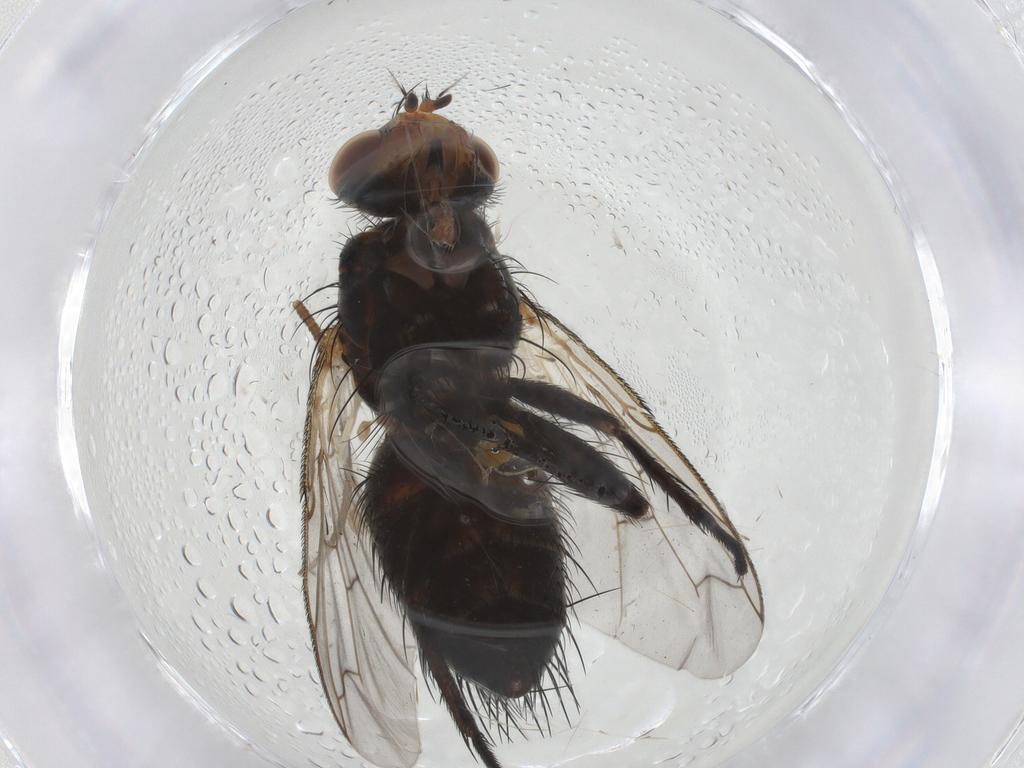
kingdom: Animalia
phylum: Arthropoda
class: Insecta
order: Diptera
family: Tachinidae
